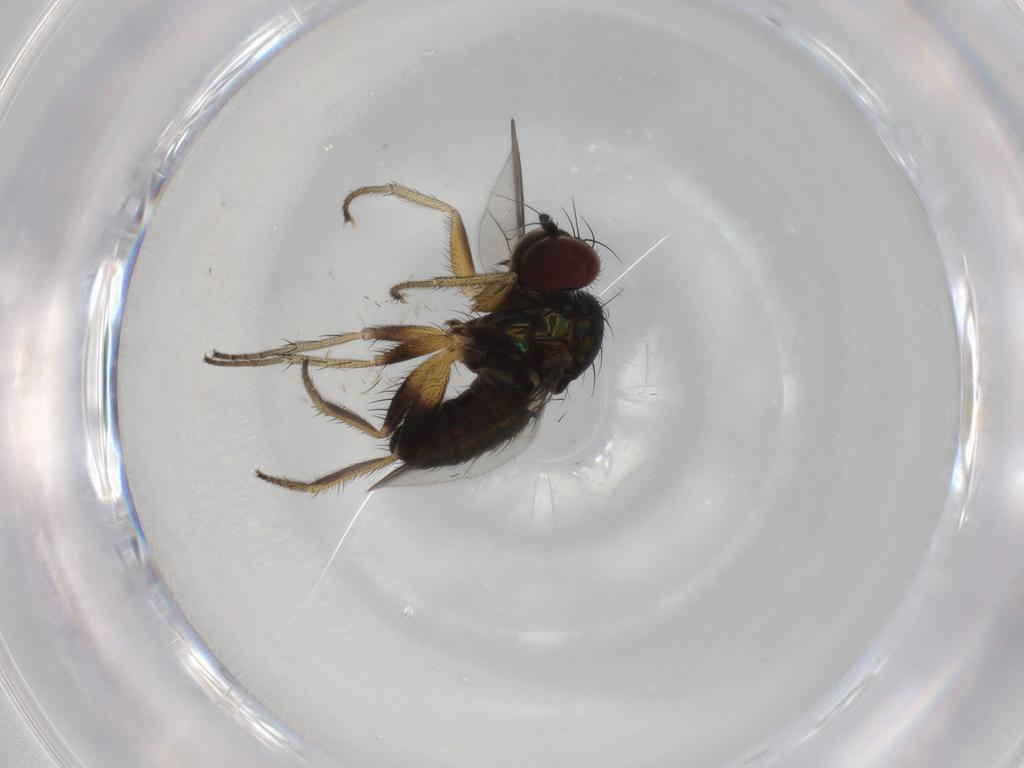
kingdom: Animalia
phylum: Arthropoda
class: Insecta
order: Diptera
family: Dolichopodidae
